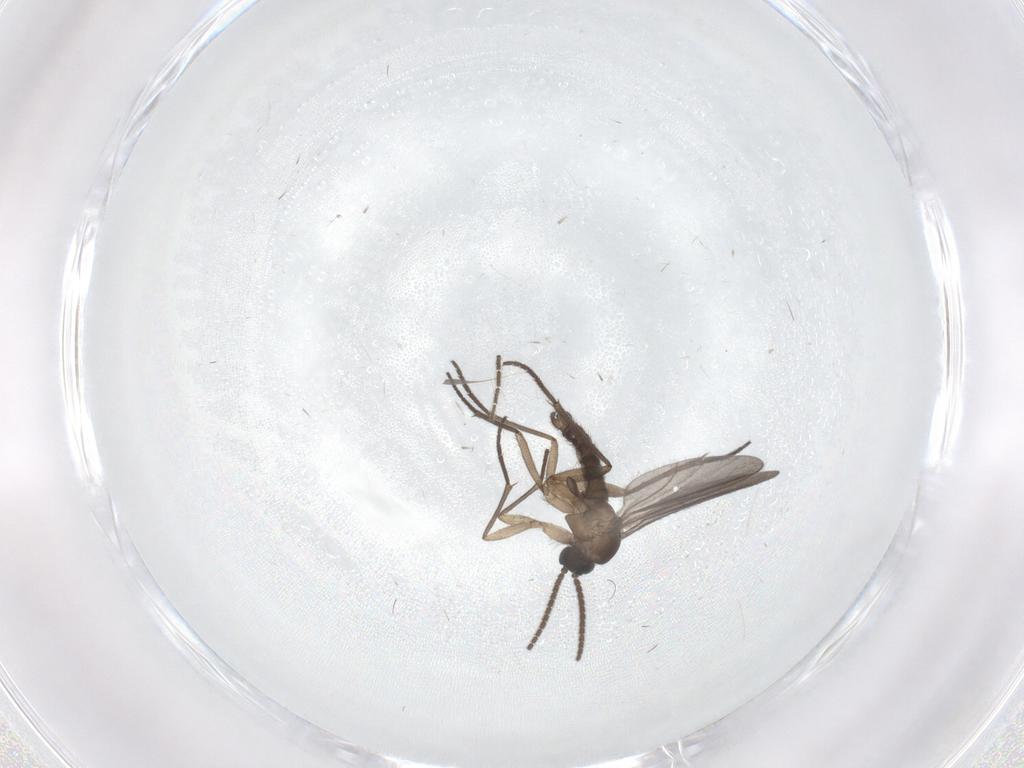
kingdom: Animalia
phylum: Arthropoda
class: Insecta
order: Diptera
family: Sciaridae
